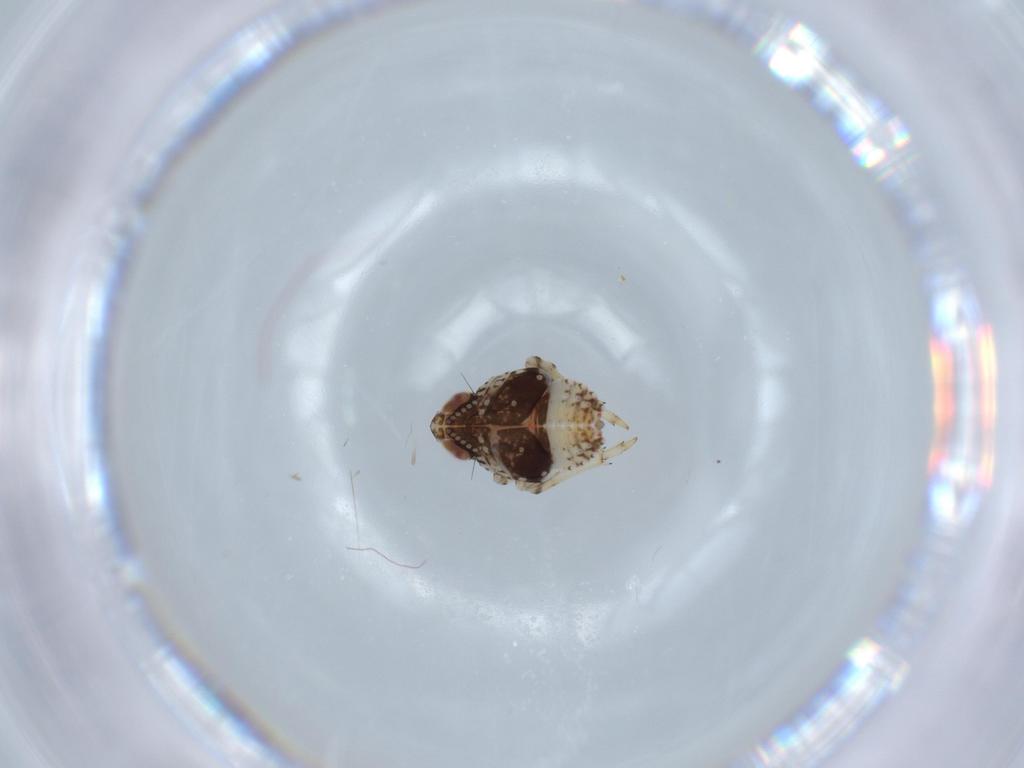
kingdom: Animalia
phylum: Arthropoda
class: Insecta
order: Hemiptera
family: Issidae
